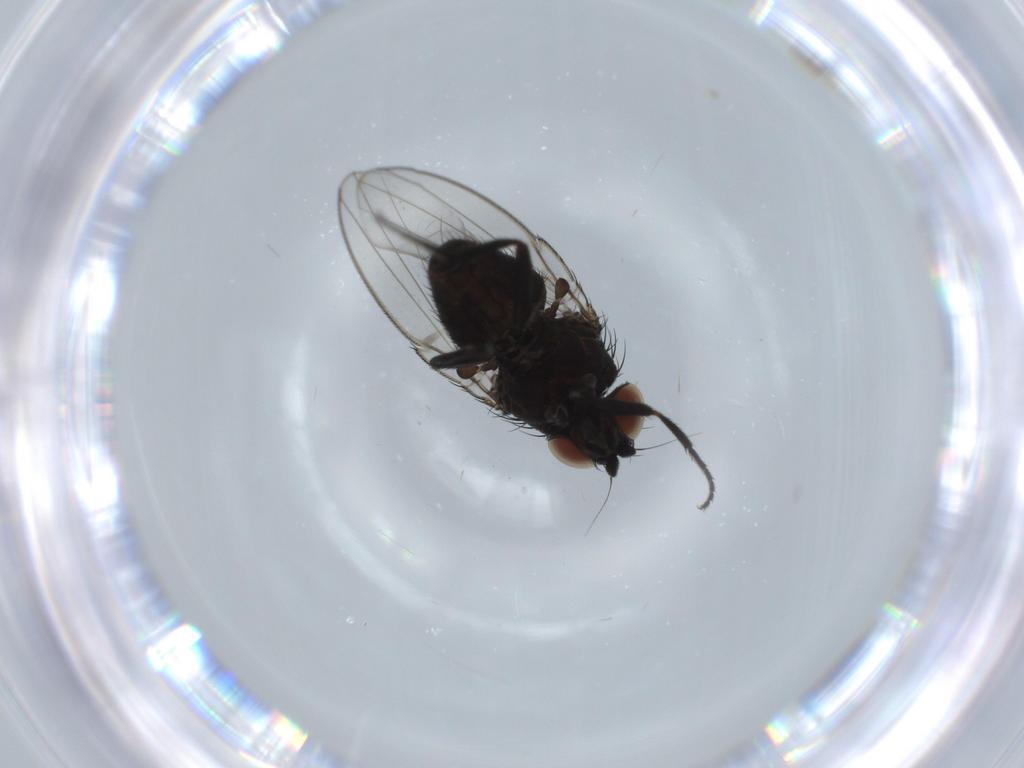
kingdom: Animalia
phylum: Arthropoda
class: Insecta
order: Diptera
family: Milichiidae
